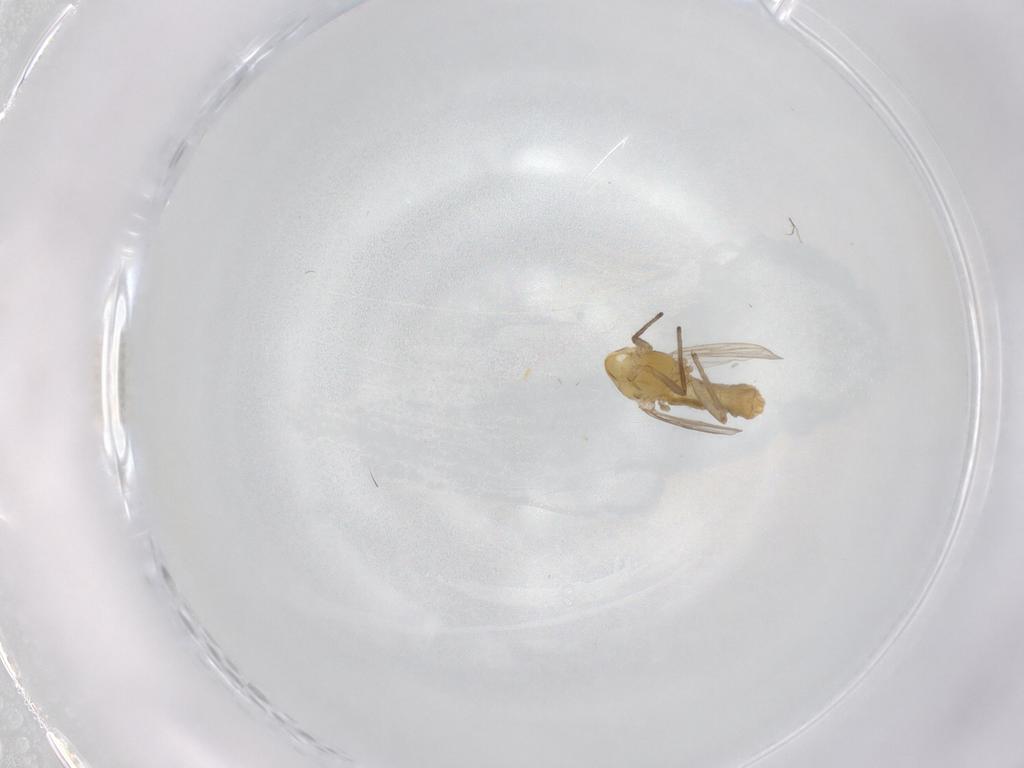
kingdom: Animalia
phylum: Arthropoda
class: Insecta
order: Diptera
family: Chironomidae
